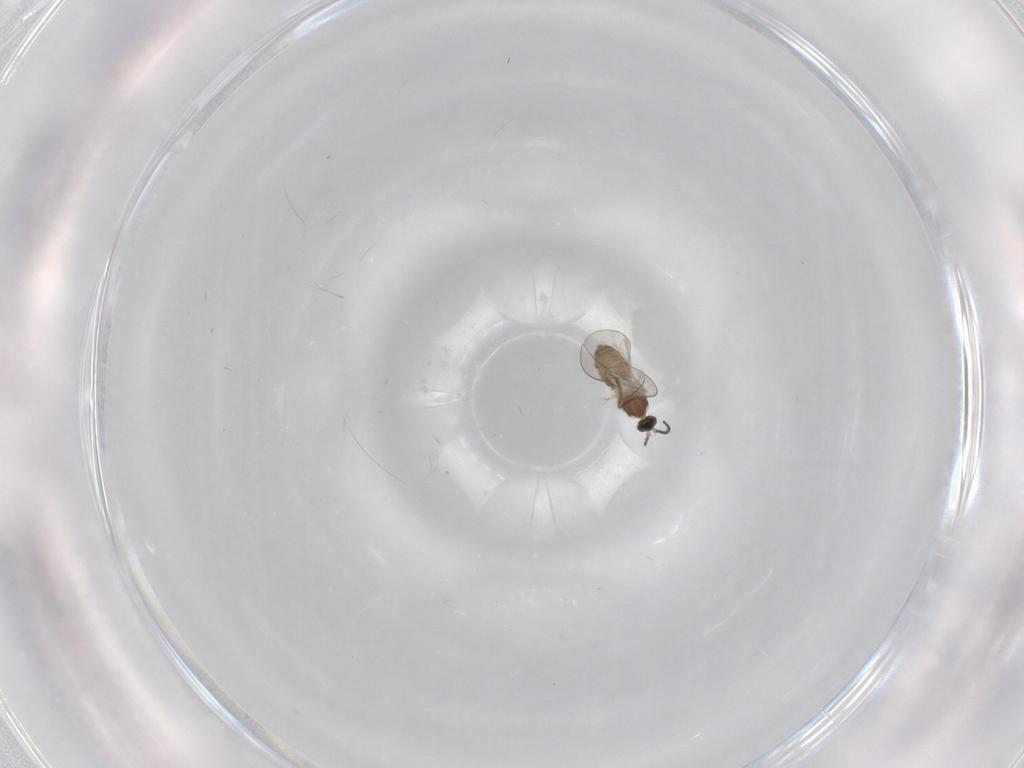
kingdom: Animalia
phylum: Arthropoda
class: Insecta
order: Diptera
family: Cecidomyiidae
